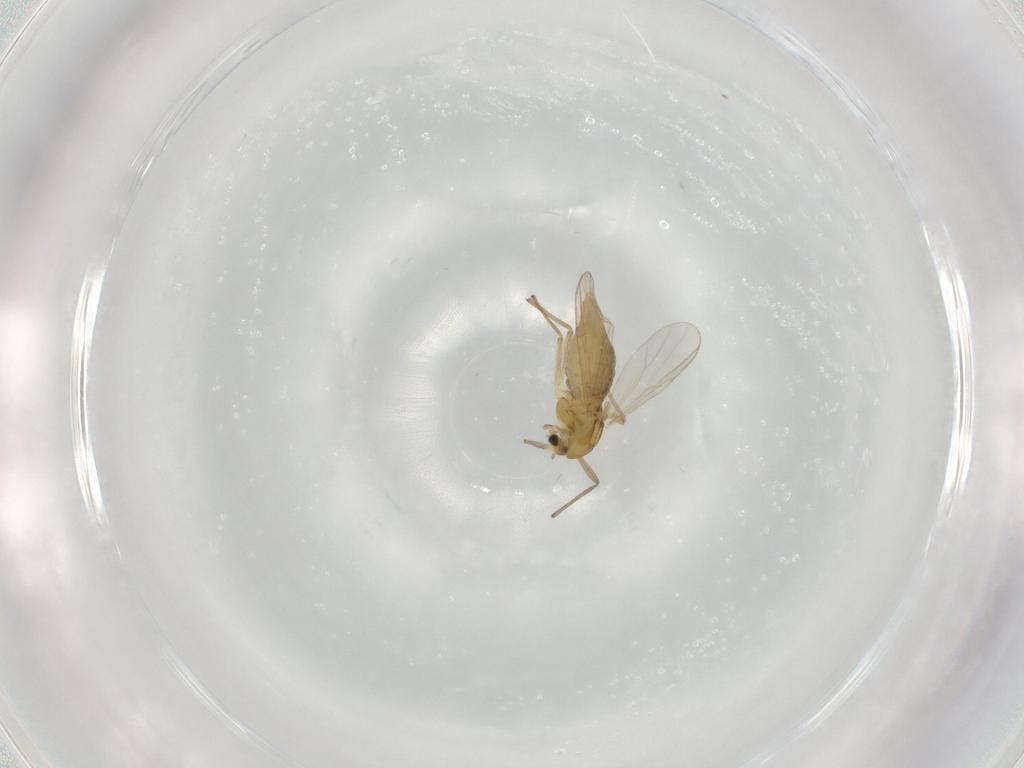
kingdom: Animalia
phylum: Arthropoda
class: Insecta
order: Diptera
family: Chironomidae
